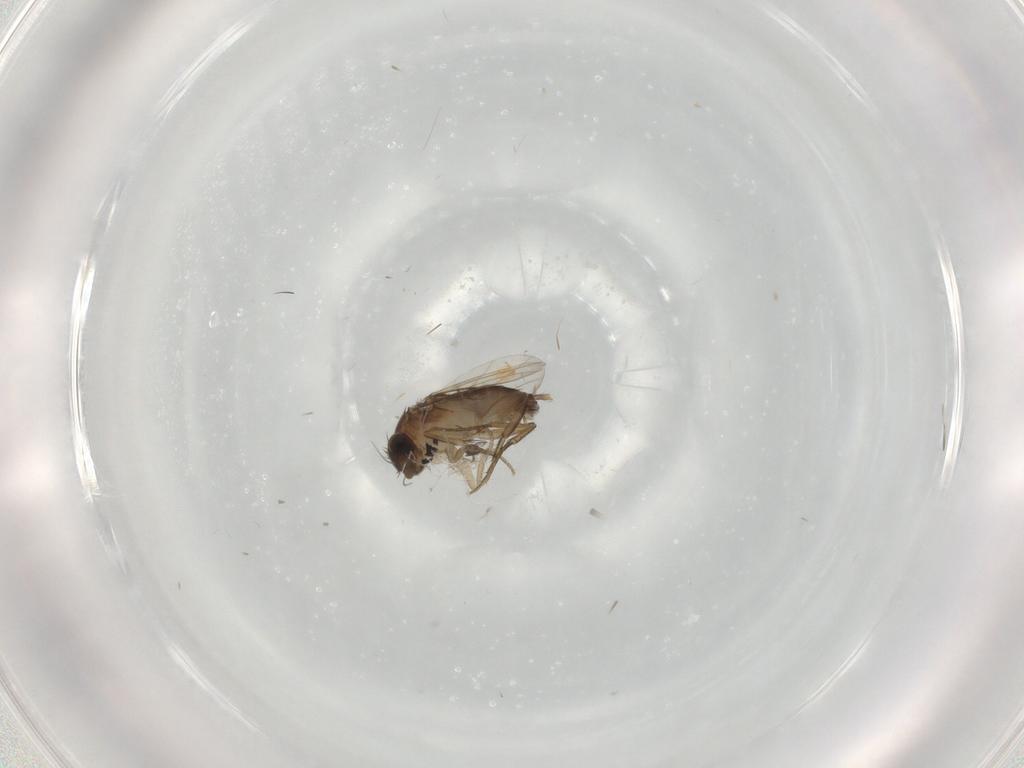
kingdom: Animalia
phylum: Arthropoda
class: Insecta
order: Diptera
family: Phoridae
